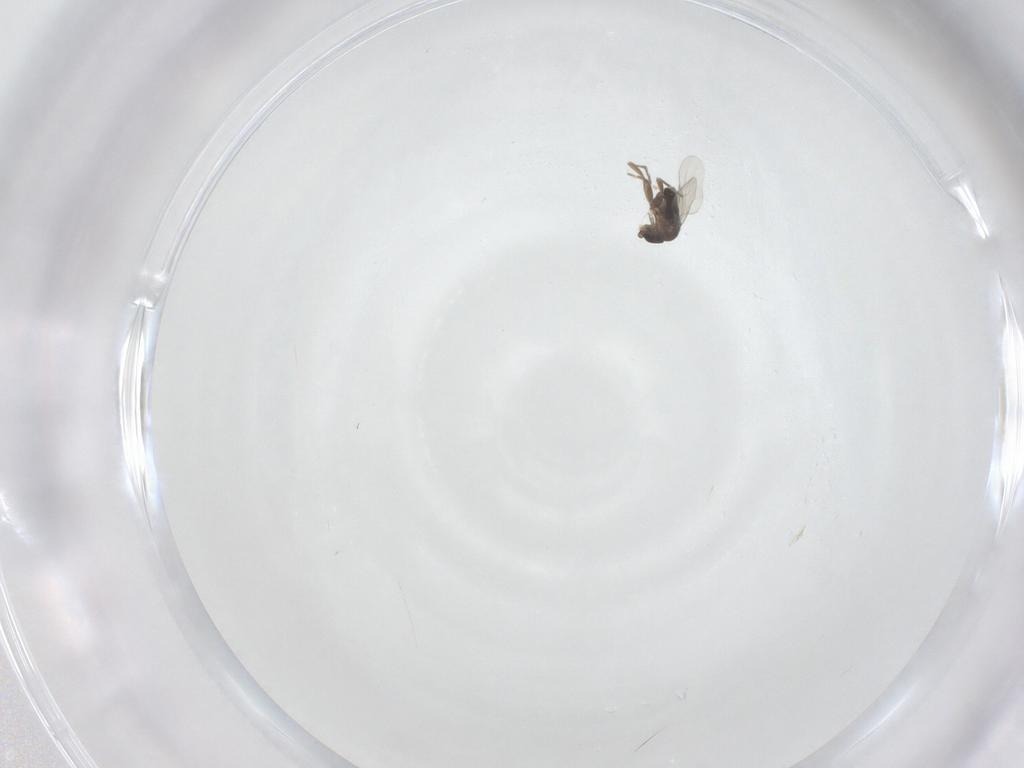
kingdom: Animalia
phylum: Arthropoda
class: Insecta
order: Diptera
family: Phoridae
